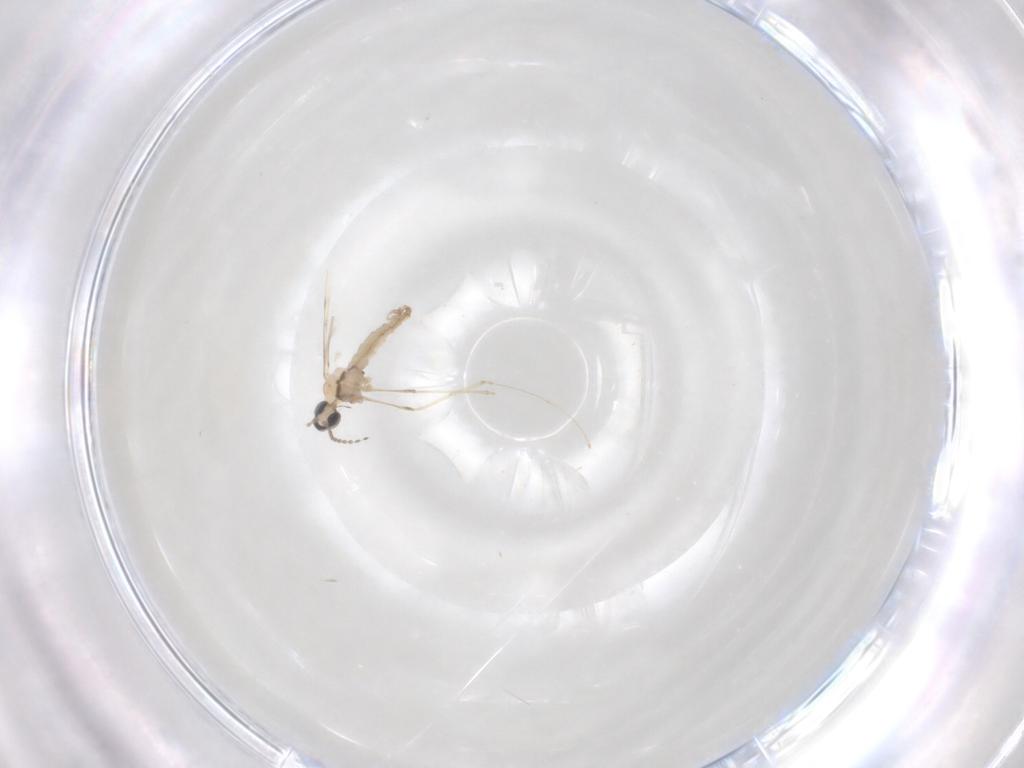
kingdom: Animalia
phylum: Arthropoda
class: Insecta
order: Diptera
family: Cecidomyiidae
